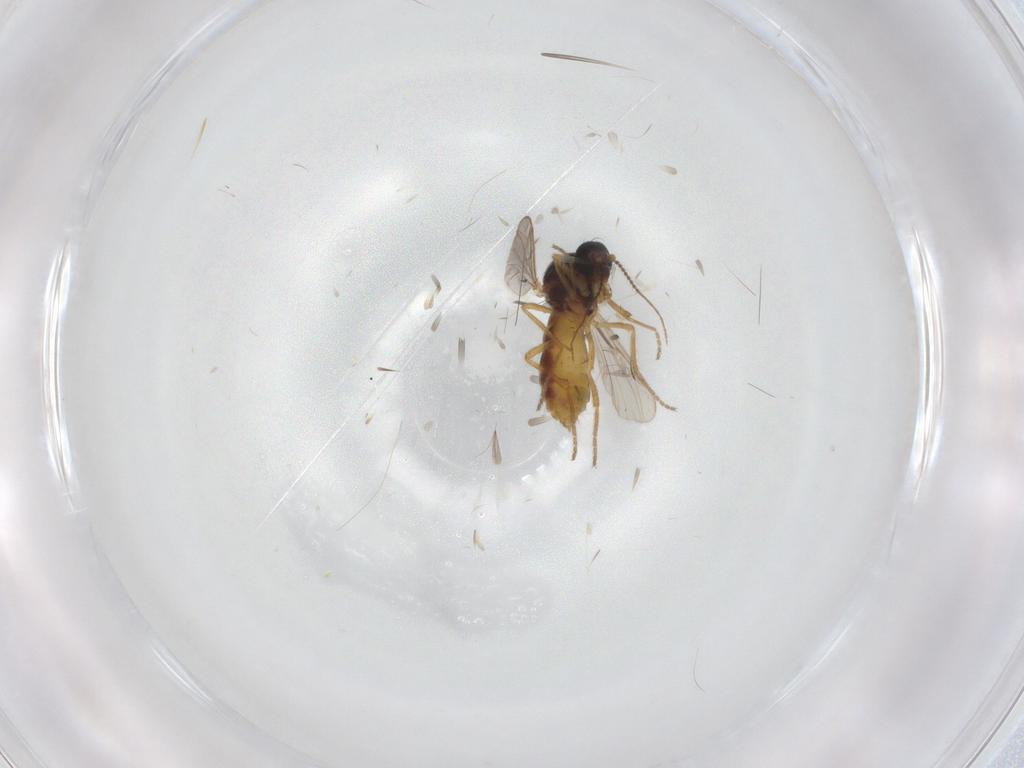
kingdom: Animalia
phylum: Arthropoda
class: Insecta
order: Diptera
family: Ceratopogonidae
